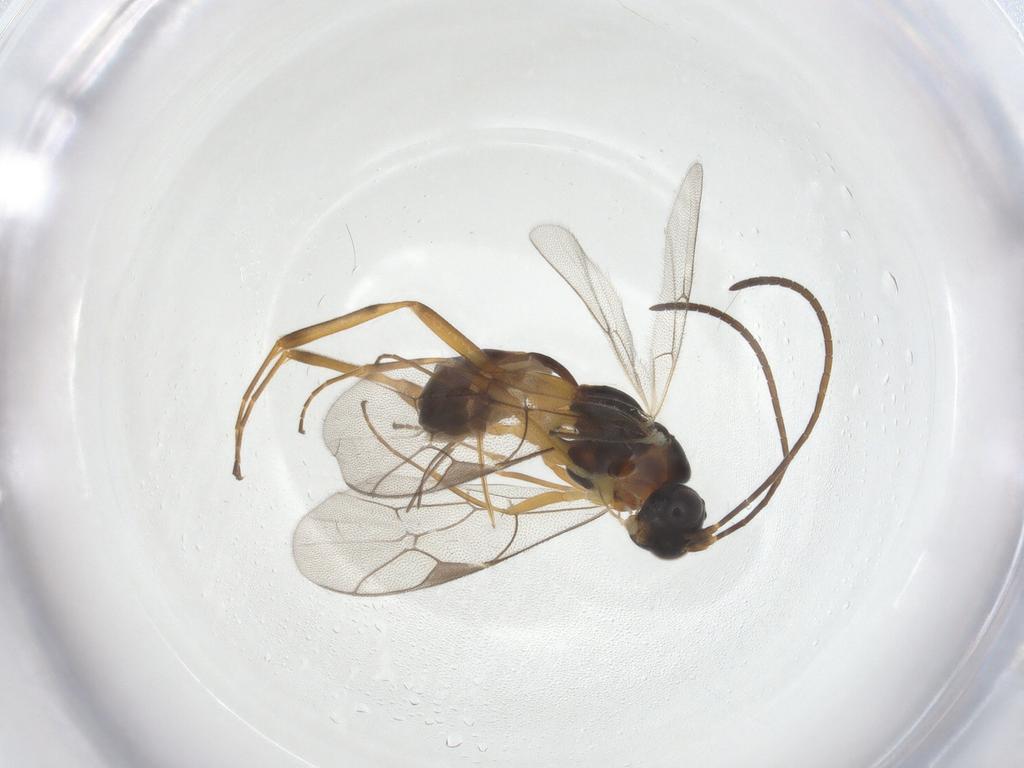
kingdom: Animalia
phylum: Arthropoda
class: Insecta
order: Hymenoptera
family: Ichneumonidae
